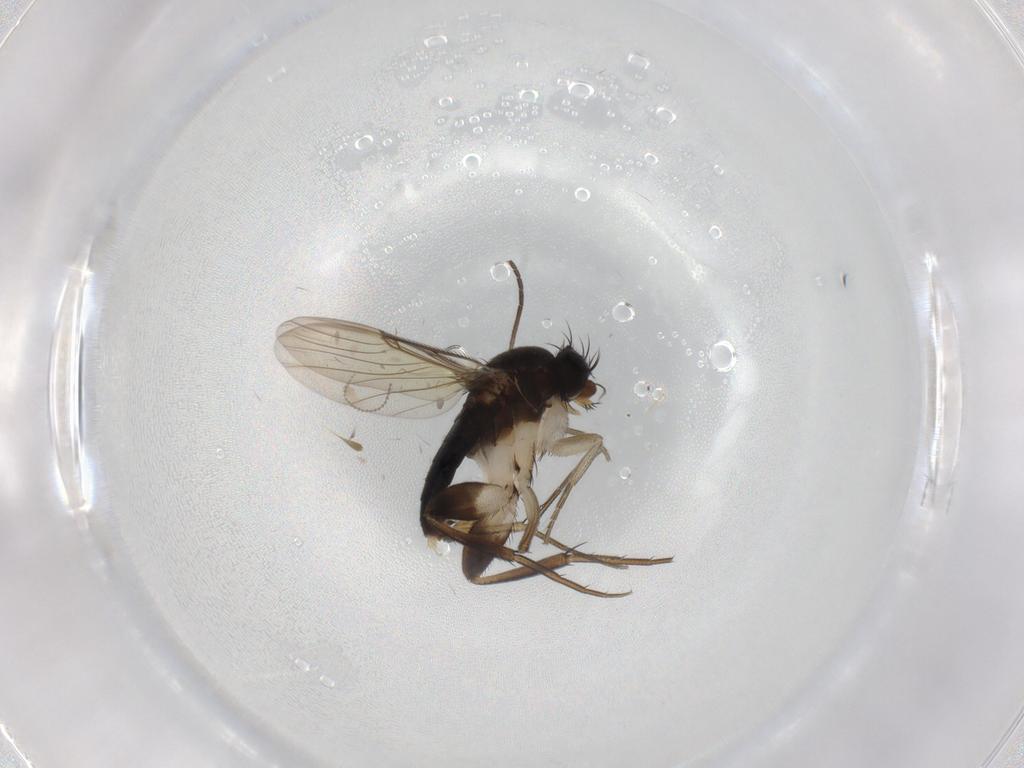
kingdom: Animalia
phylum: Arthropoda
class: Insecta
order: Diptera
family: Phoridae
